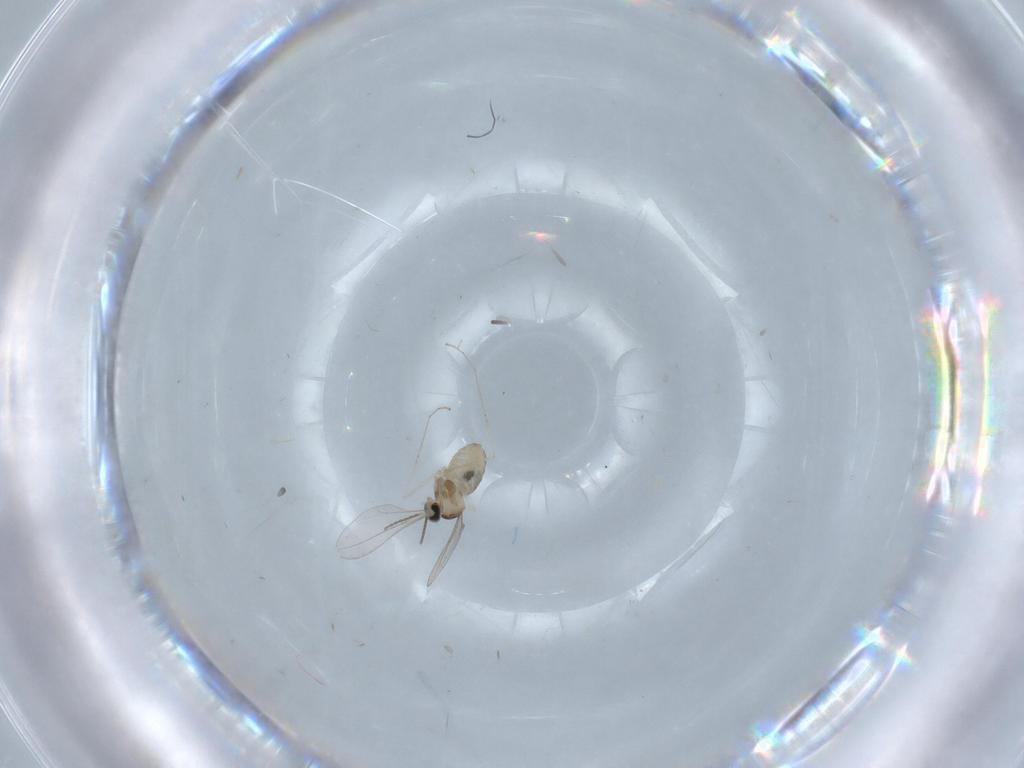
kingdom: Animalia
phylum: Arthropoda
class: Insecta
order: Diptera
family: Cecidomyiidae
